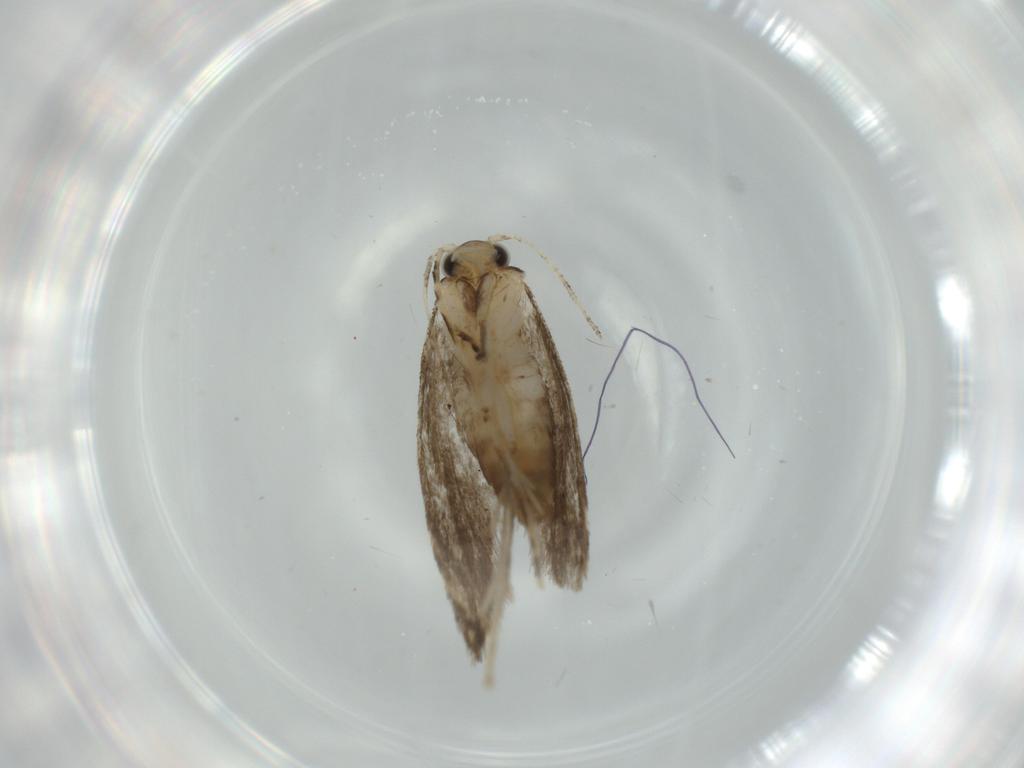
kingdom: Animalia
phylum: Arthropoda
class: Insecta
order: Lepidoptera
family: Tineidae
